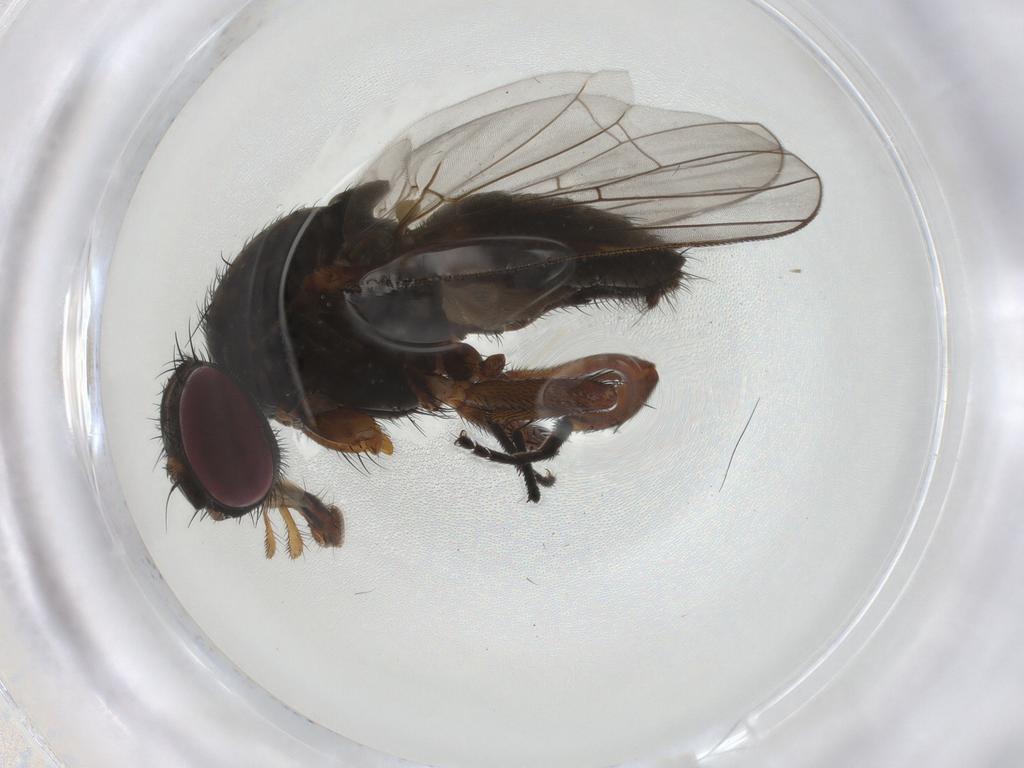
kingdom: Animalia
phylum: Arthropoda
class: Insecta
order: Diptera
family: Fannia
